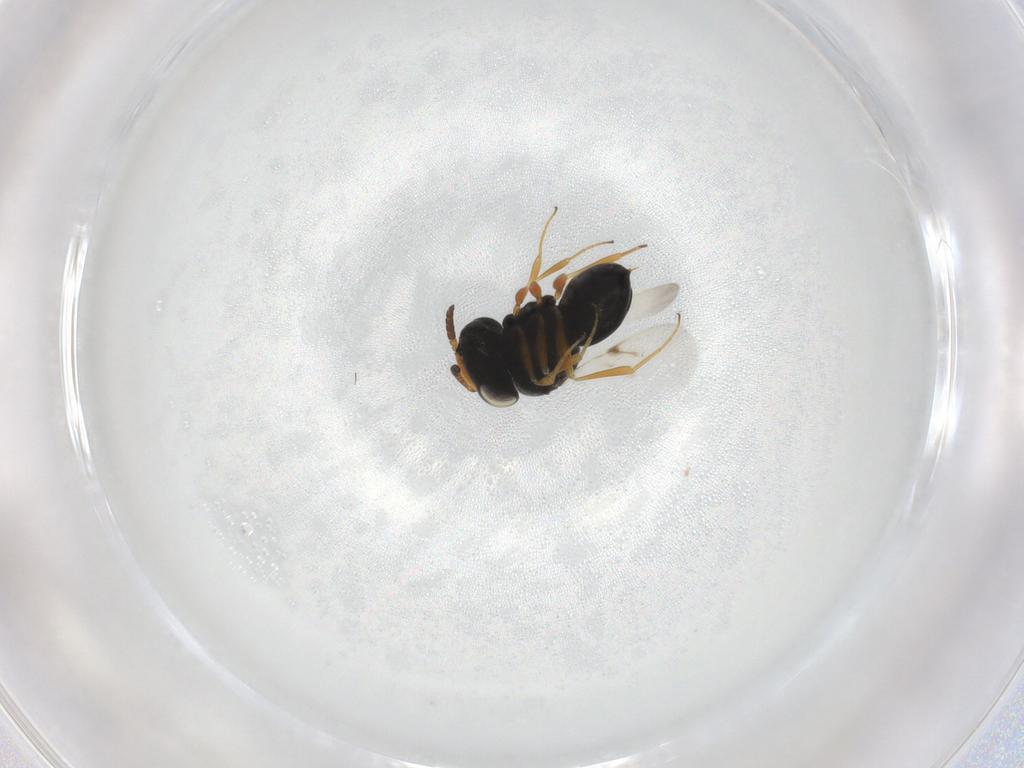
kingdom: Animalia
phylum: Arthropoda
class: Insecta
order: Hymenoptera
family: Scelionidae
